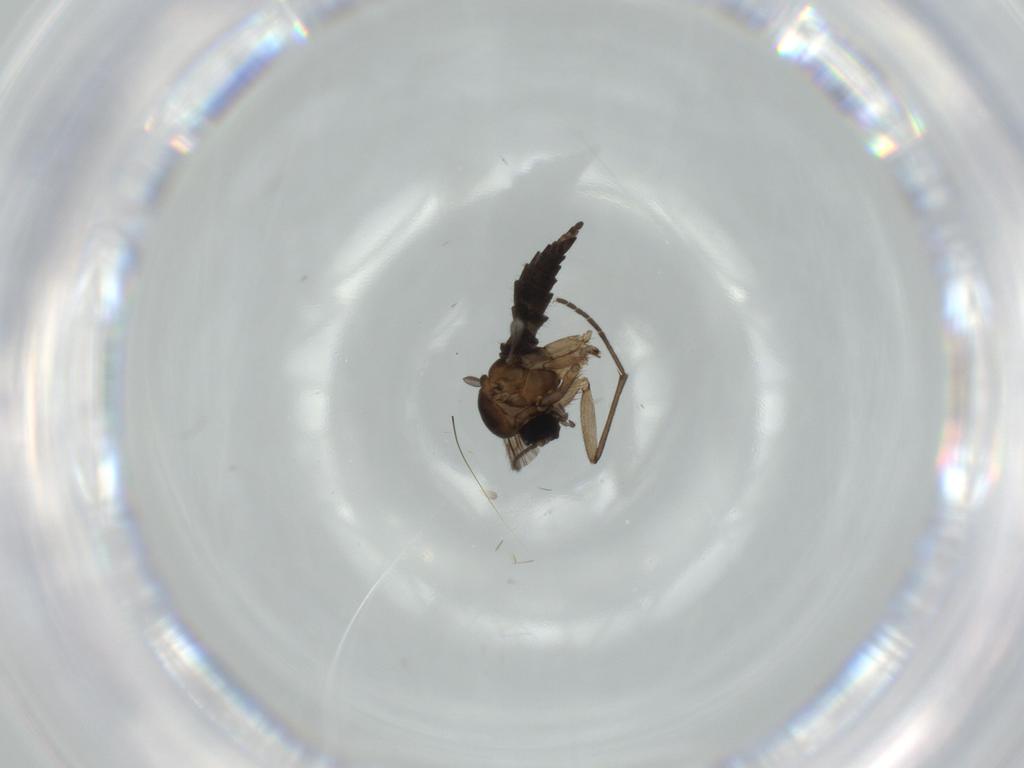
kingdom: Animalia
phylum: Arthropoda
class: Insecta
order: Diptera
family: Sciaridae
